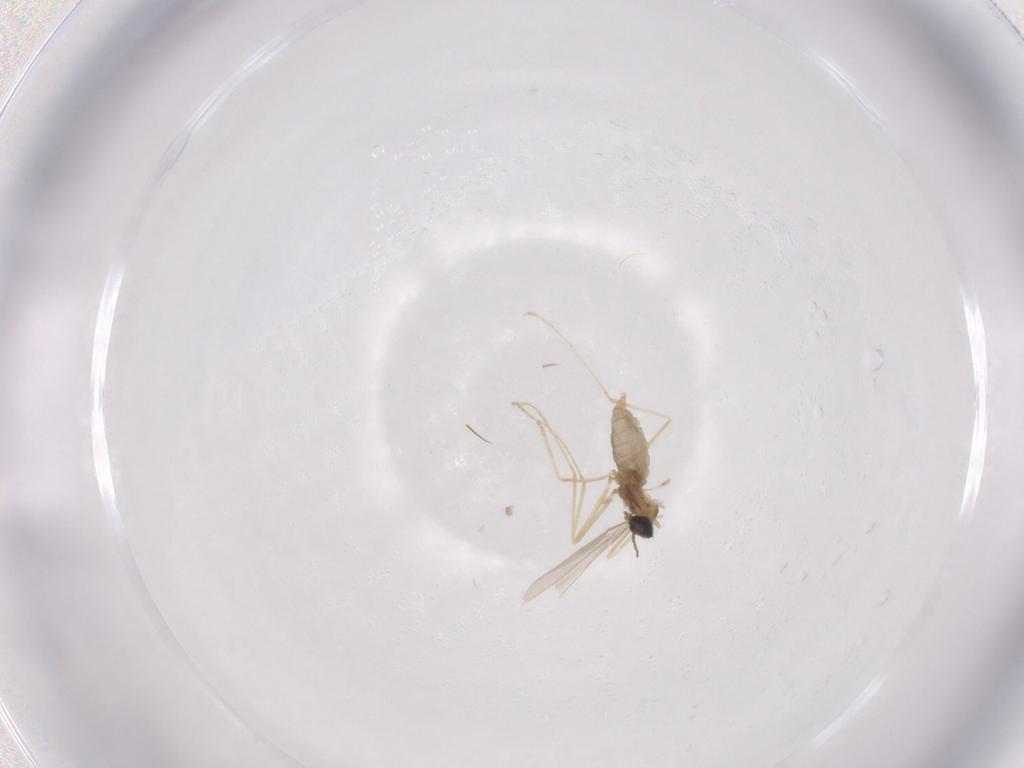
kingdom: Animalia
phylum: Arthropoda
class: Insecta
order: Diptera
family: Cecidomyiidae
